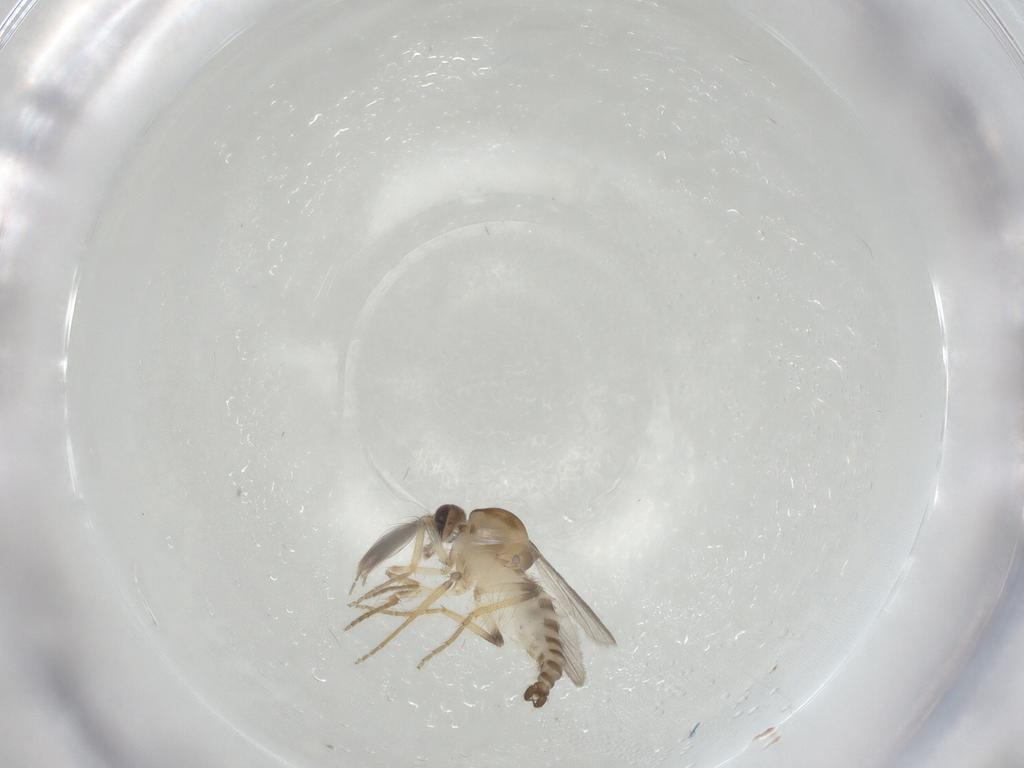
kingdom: Animalia
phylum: Arthropoda
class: Insecta
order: Diptera
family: Ceratopogonidae
